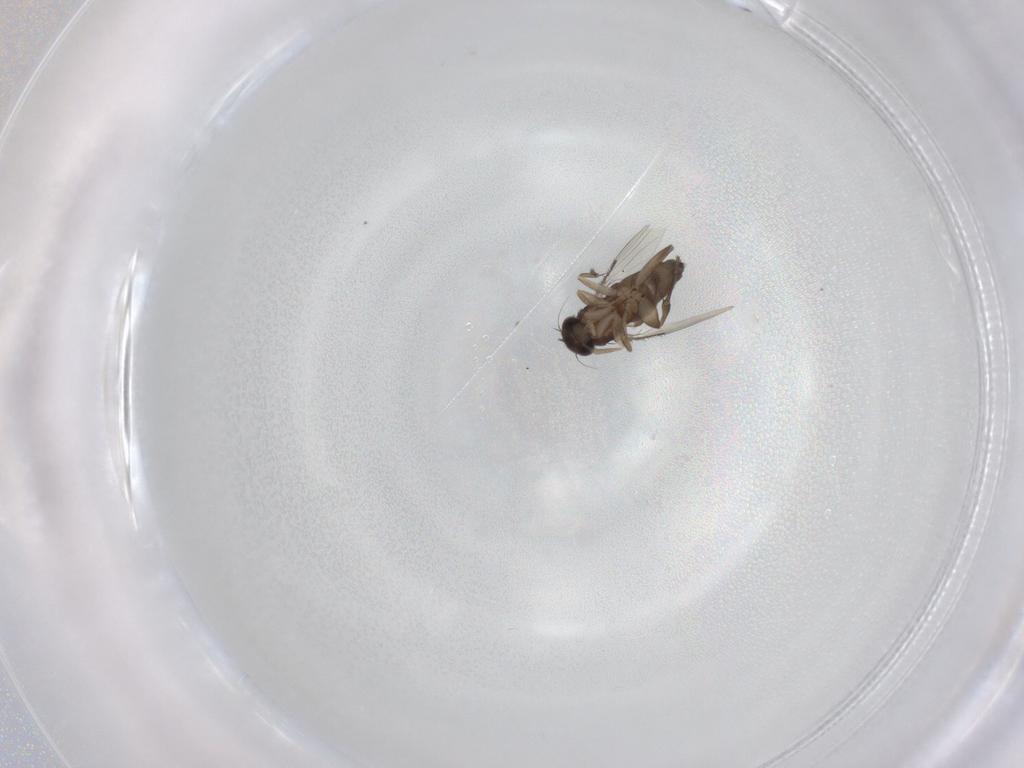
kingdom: Animalia
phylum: Arthropoda
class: Insecta
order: Diptera
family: Phoridae
